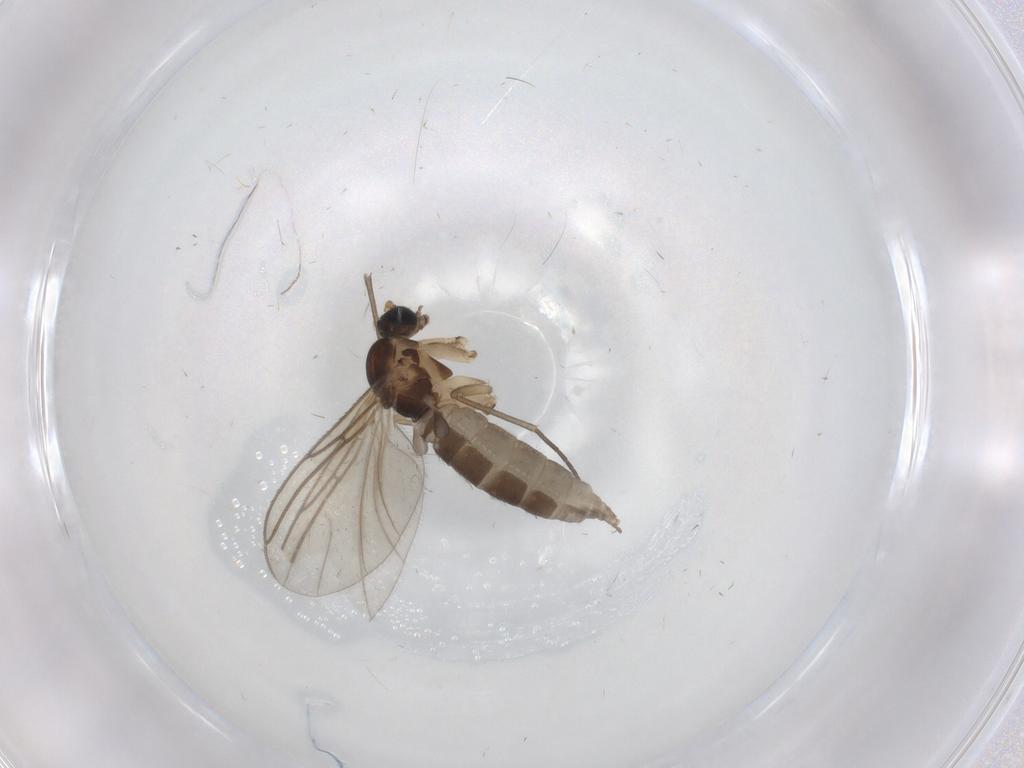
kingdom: Animalia
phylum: Arthropoda
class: Insecta
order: Diptera
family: Sciaridae
